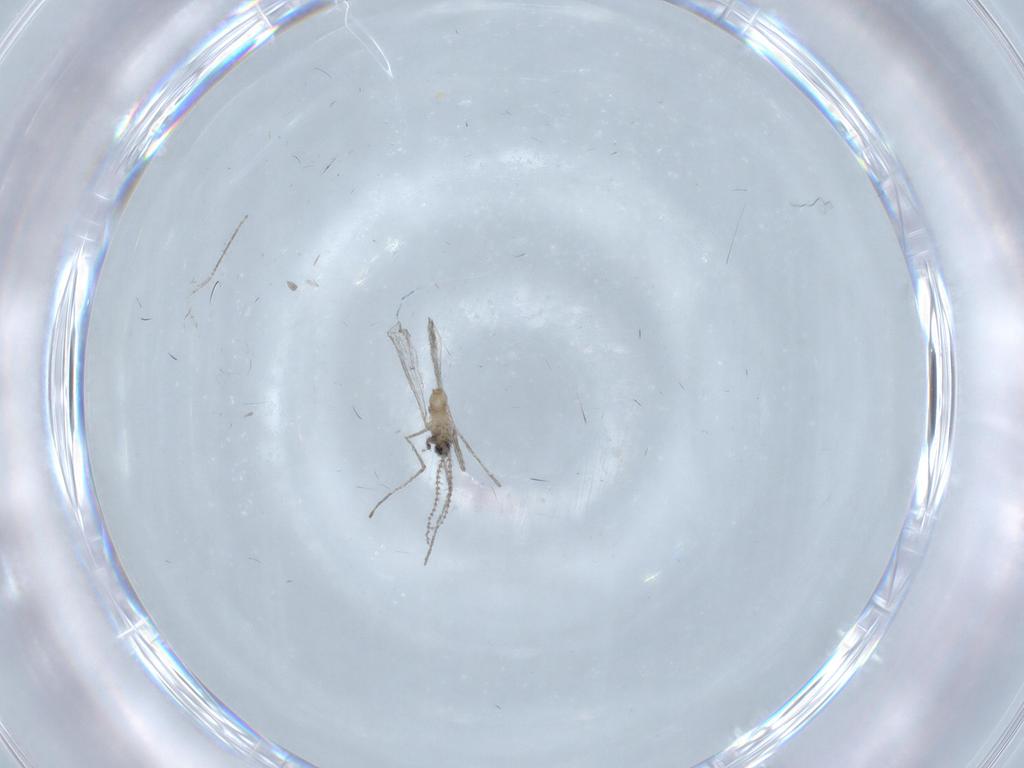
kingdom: Animalia
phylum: Arthropoda
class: Insecta
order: Diptera
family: Cecidomyiidae
